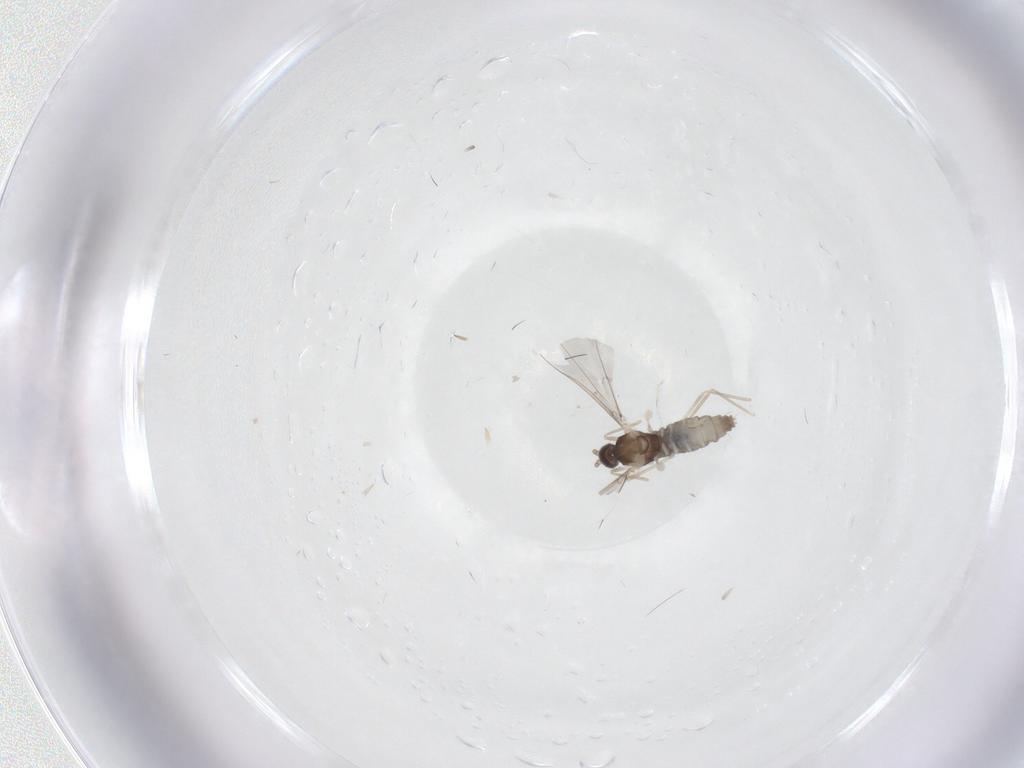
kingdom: Animalia
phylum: Arthropoda
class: Insecta
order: Diptera
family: Cecidomyiidae
